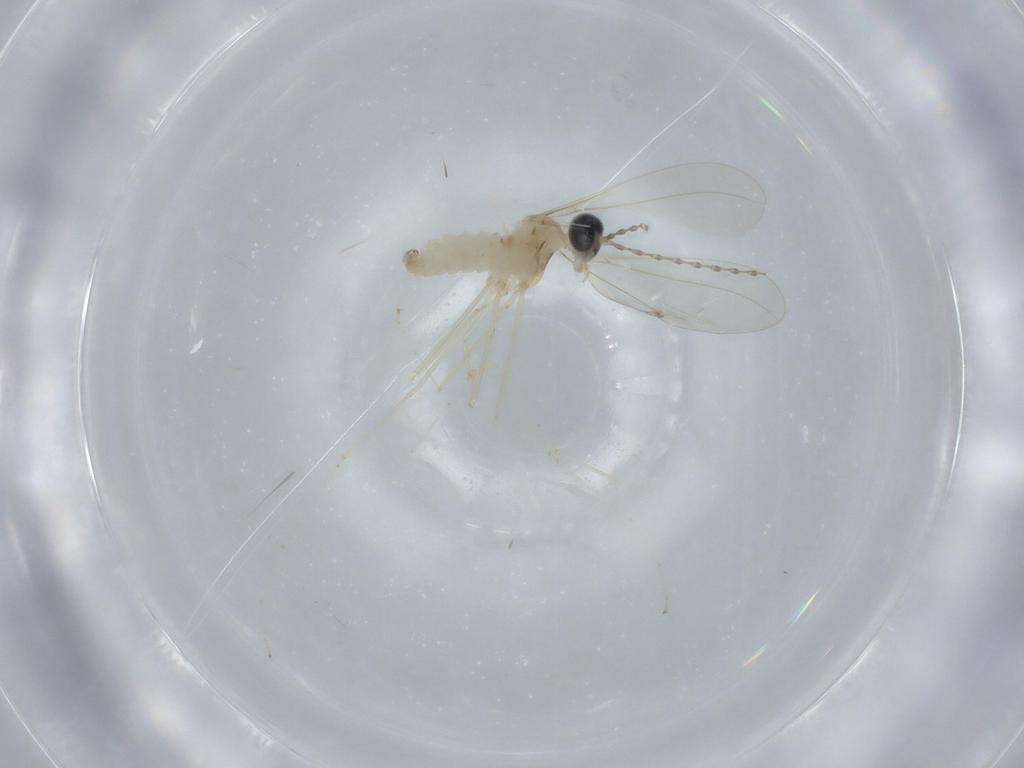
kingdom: Animalia
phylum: Arthropoda
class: Insecta
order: Diptera
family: Cecidomyiidae
